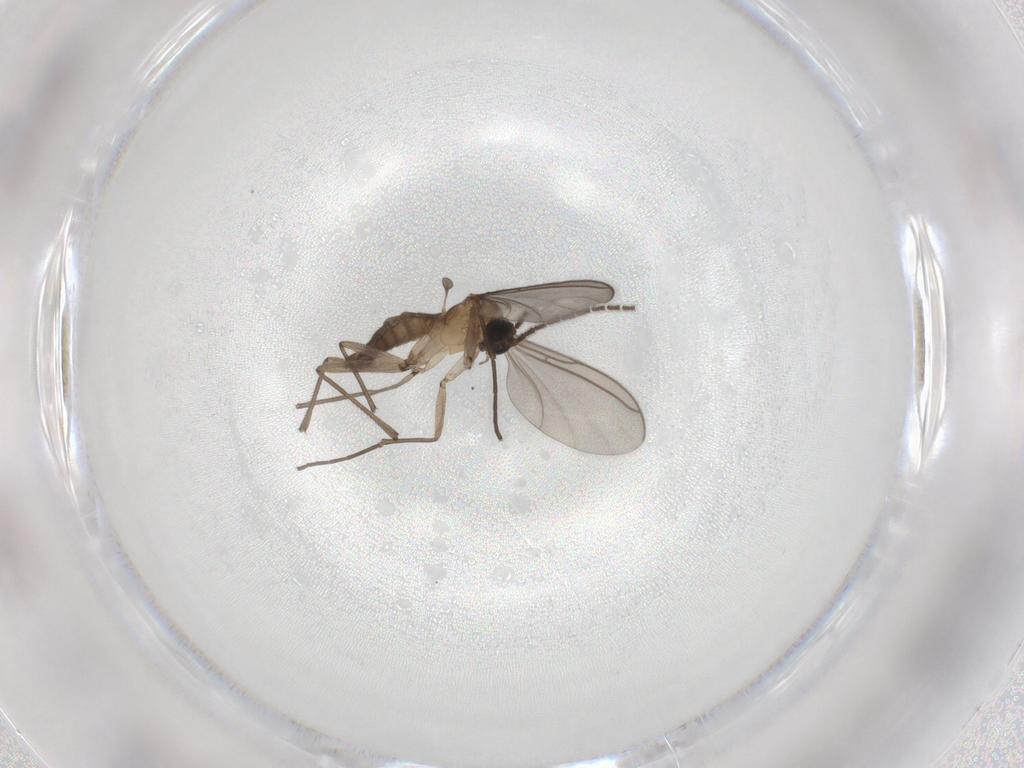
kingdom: Animalia
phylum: Arthropoda
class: Insecta
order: Diptera
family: Sciaridae
